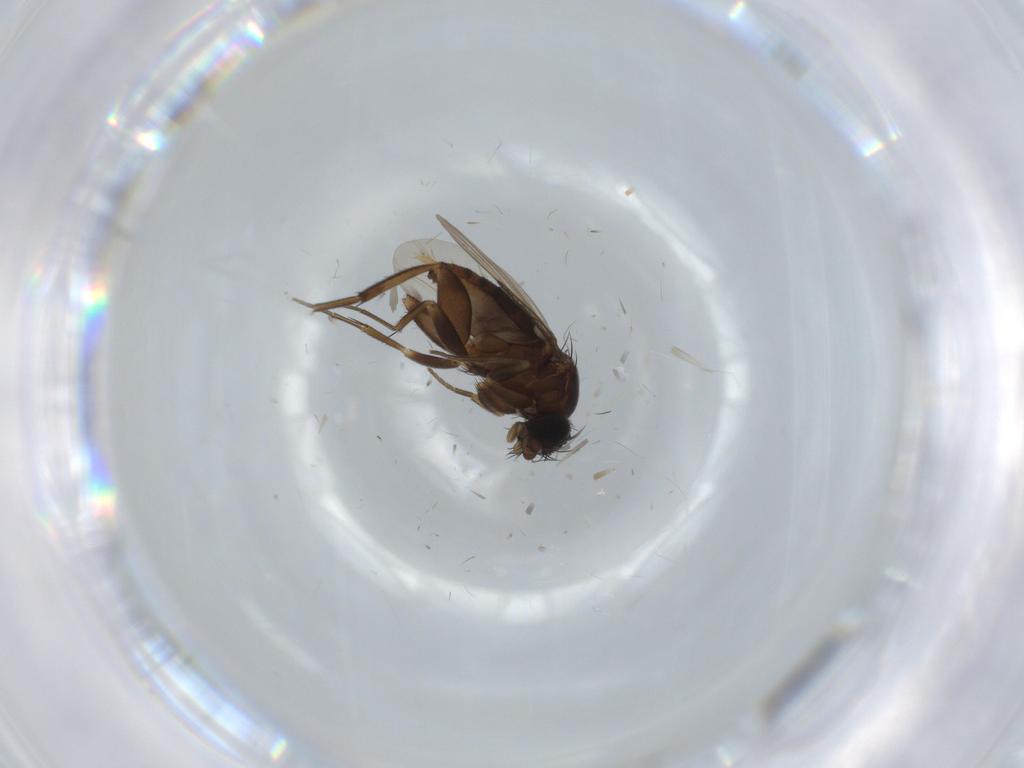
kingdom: Animalia
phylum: Arthropoda
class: Insecta
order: Diptera
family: Phoridae
